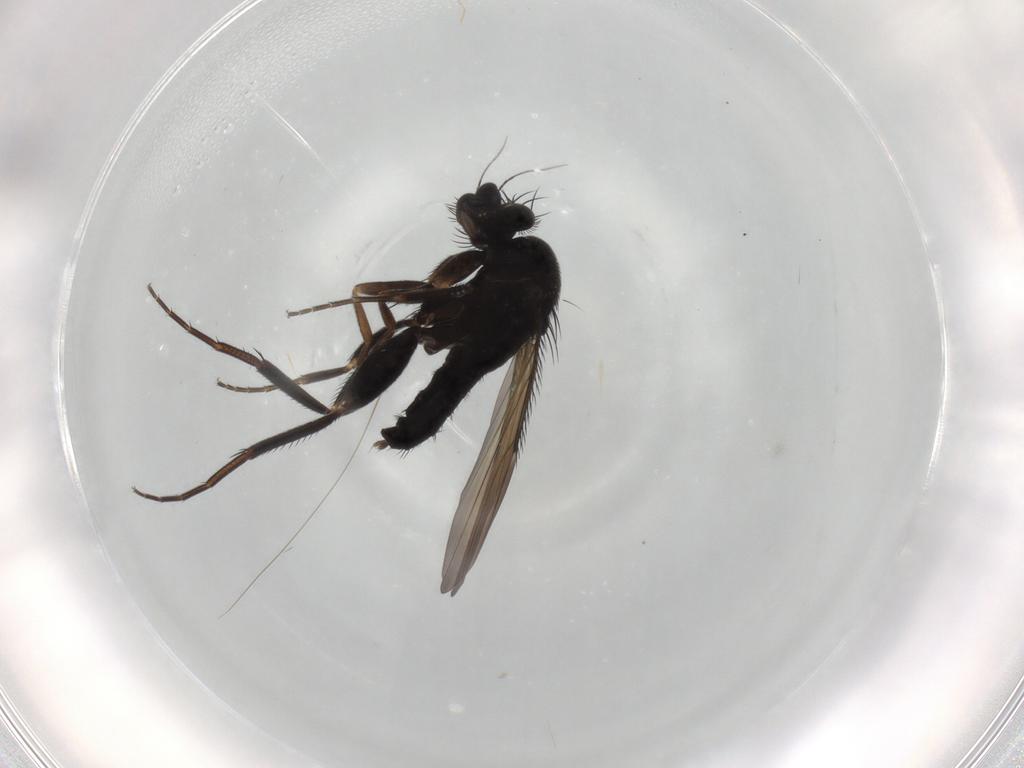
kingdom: Animalia
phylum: Arthropoda
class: Insecta
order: Diptera
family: Phoridae
